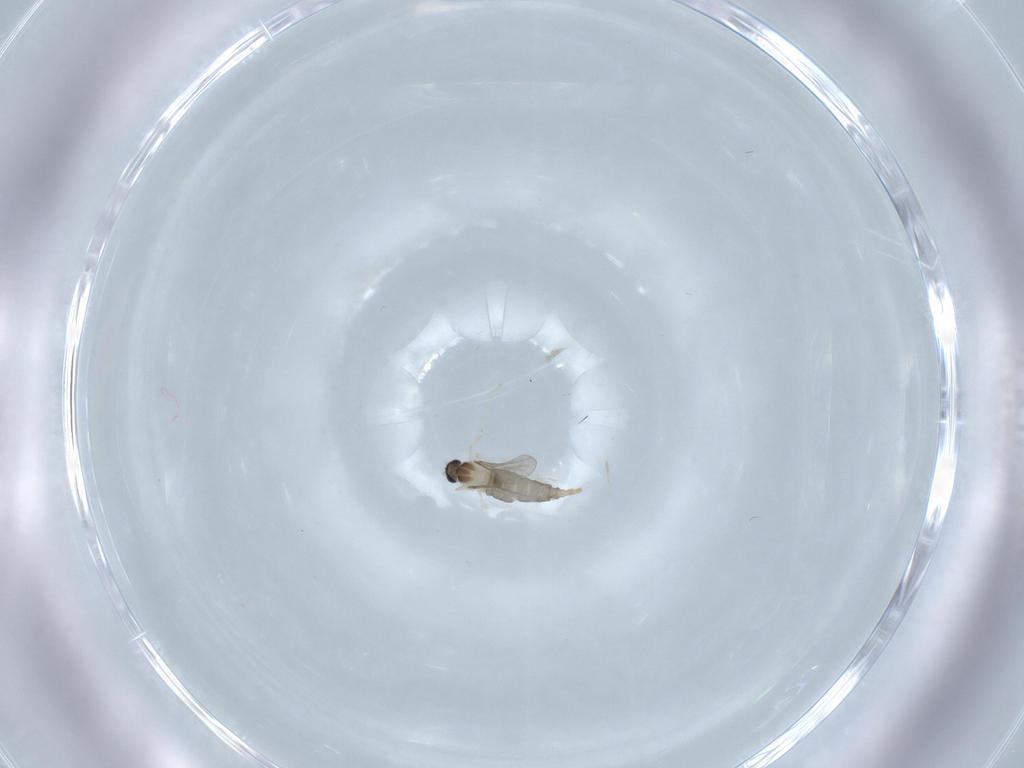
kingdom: Animalia
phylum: Arthropoda
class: Insecta
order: Diptera
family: Cecidomyiidae
